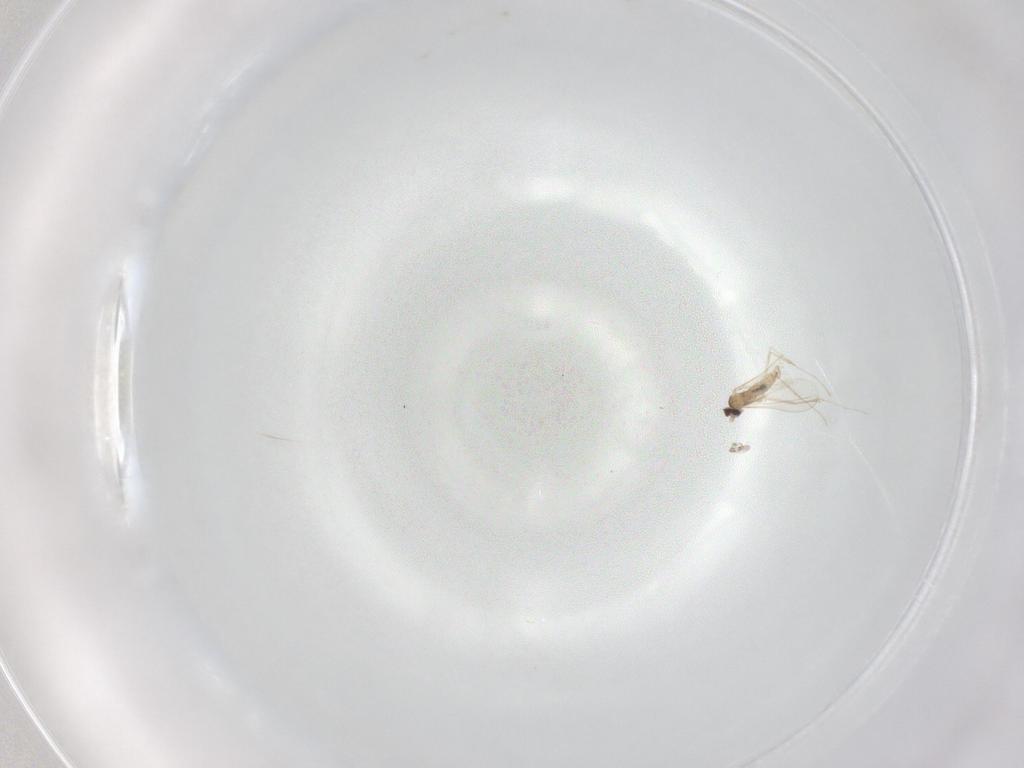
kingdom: Animalia
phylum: Arthropoda
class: Insecta
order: Diptera
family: Cecidomyiidae
